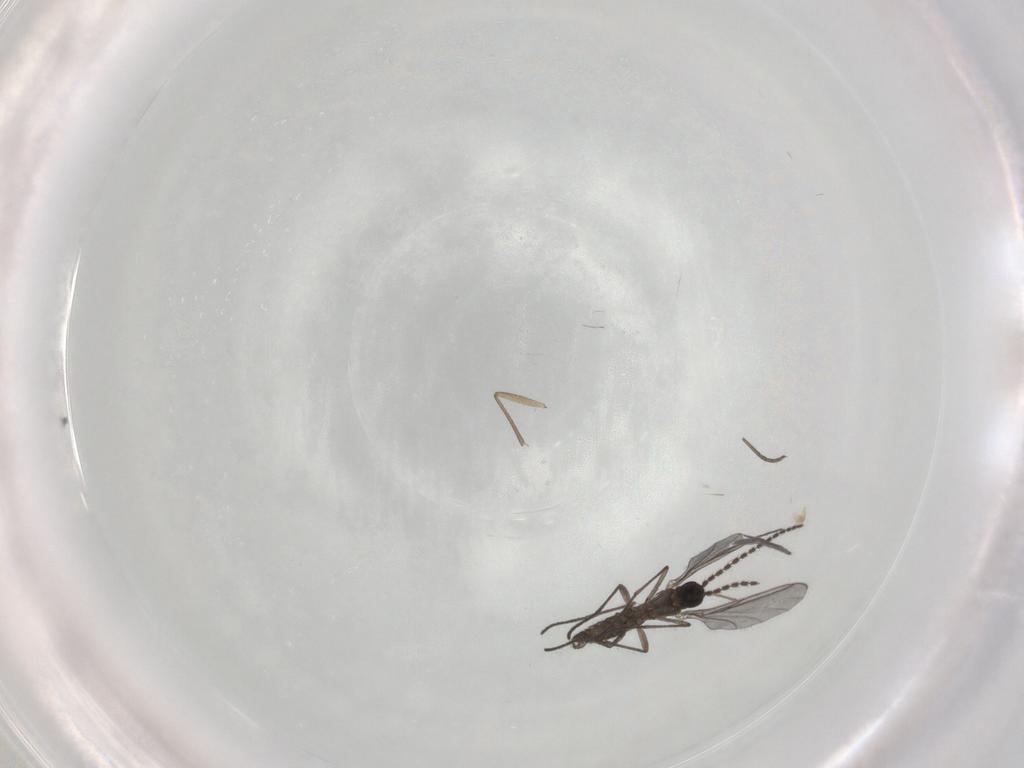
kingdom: Animalia
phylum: Arthropoda
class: Insecta
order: Diptera
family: Sciaridae
